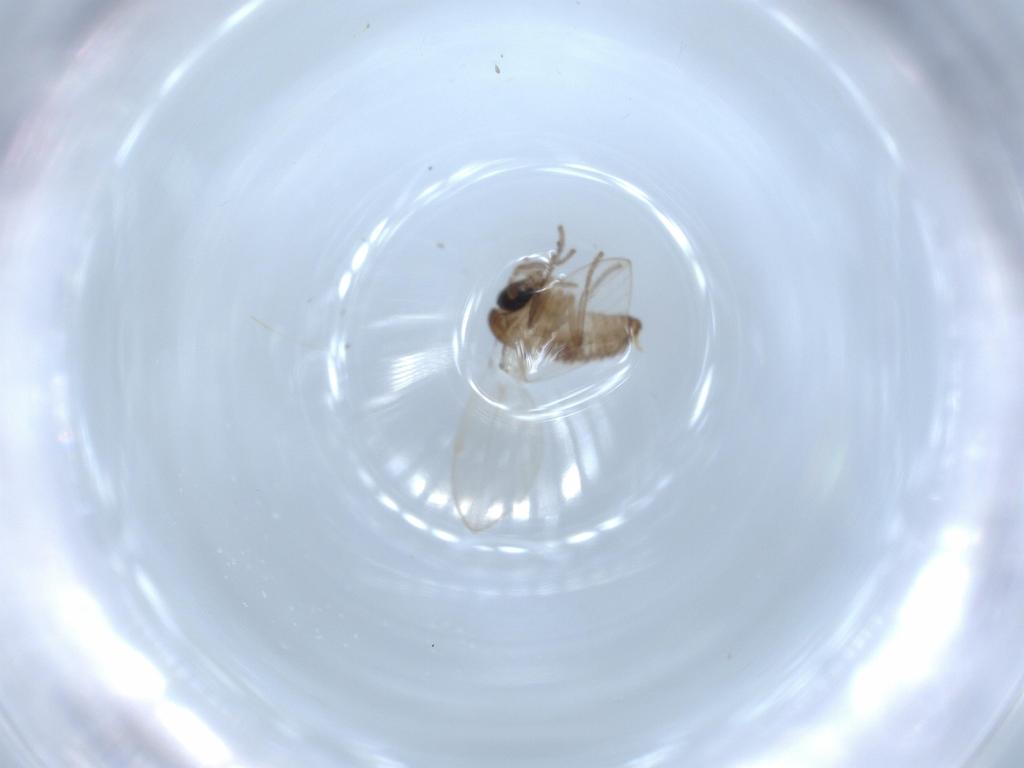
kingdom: Animalia
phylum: Arthropoda
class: Insecta
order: Diptera
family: Psychodidae
